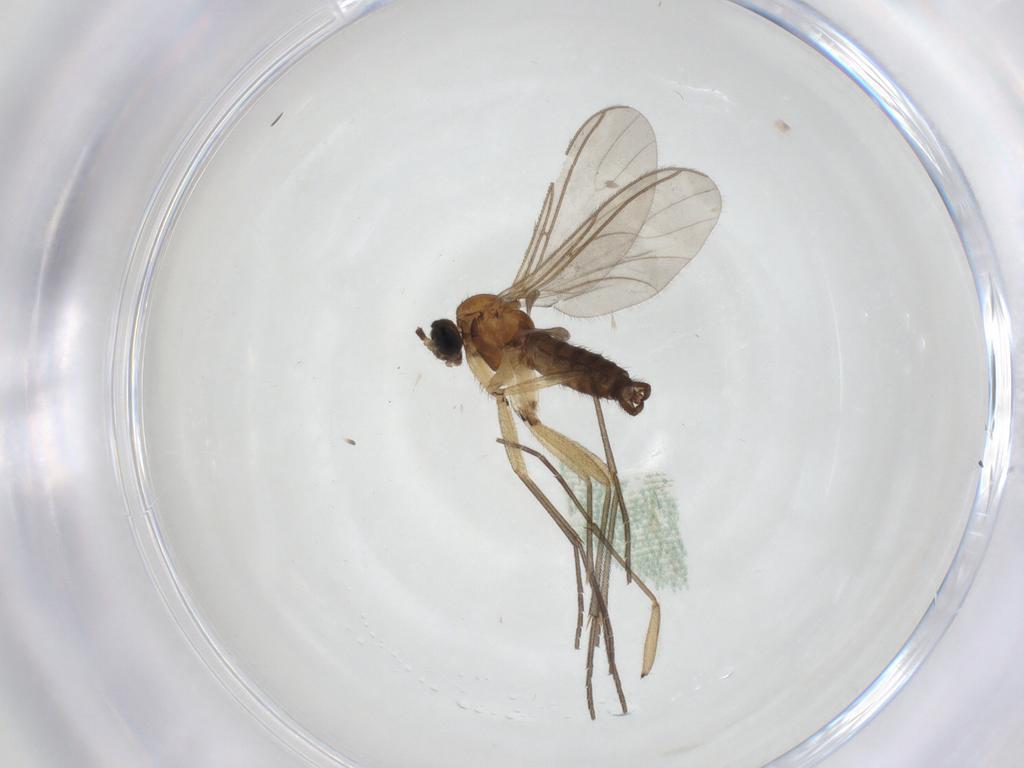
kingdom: Animalia
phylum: Arthropoda
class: Insecta
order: Diptera
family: Sciaridae
